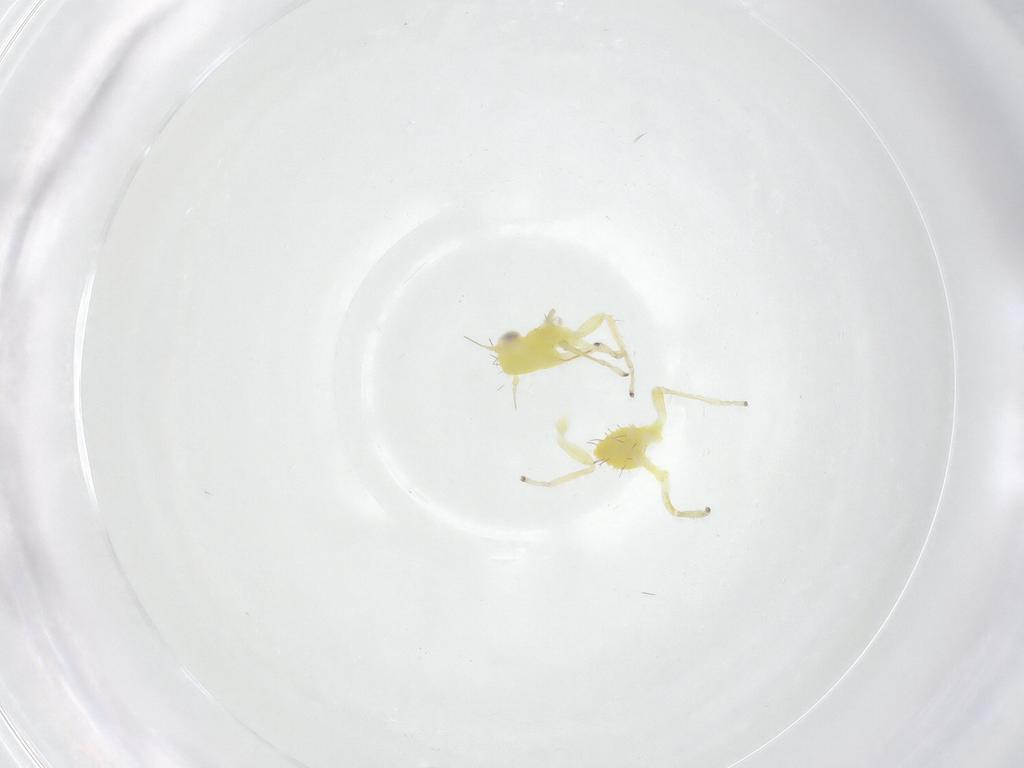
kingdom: Animalia
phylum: Arthropoda
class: Insecta
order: Hemiptera
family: Cicadellidae
